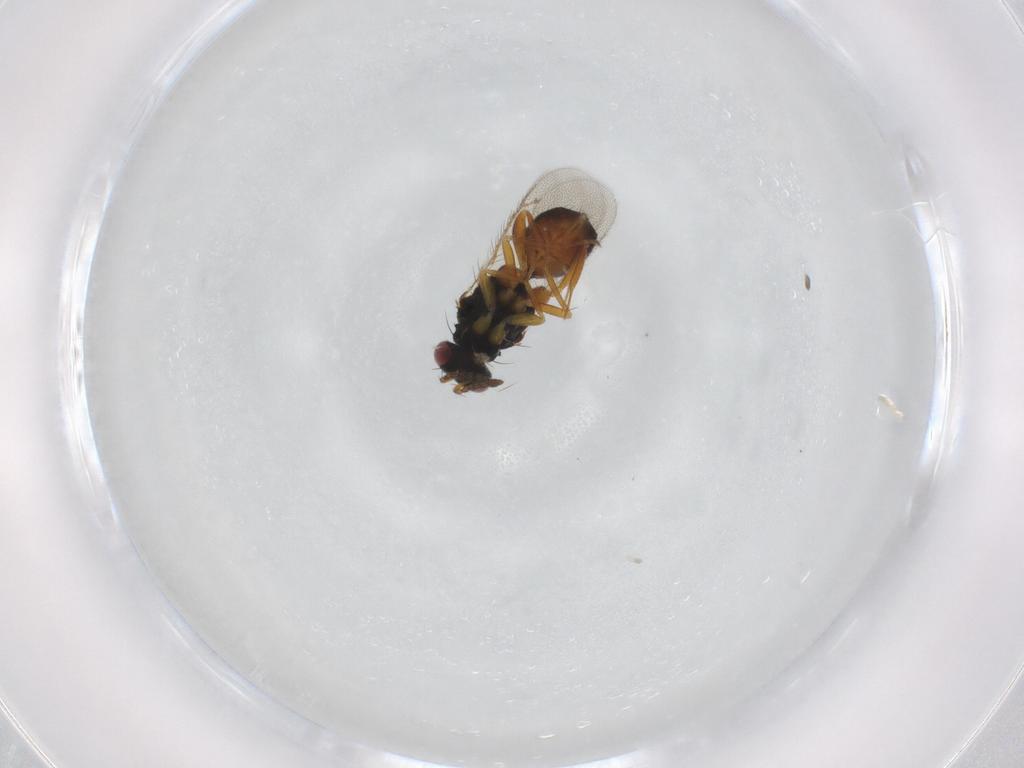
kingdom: Animalia
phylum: Arthropoda
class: Insecta
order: Hymenoptera
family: Eulophidae
